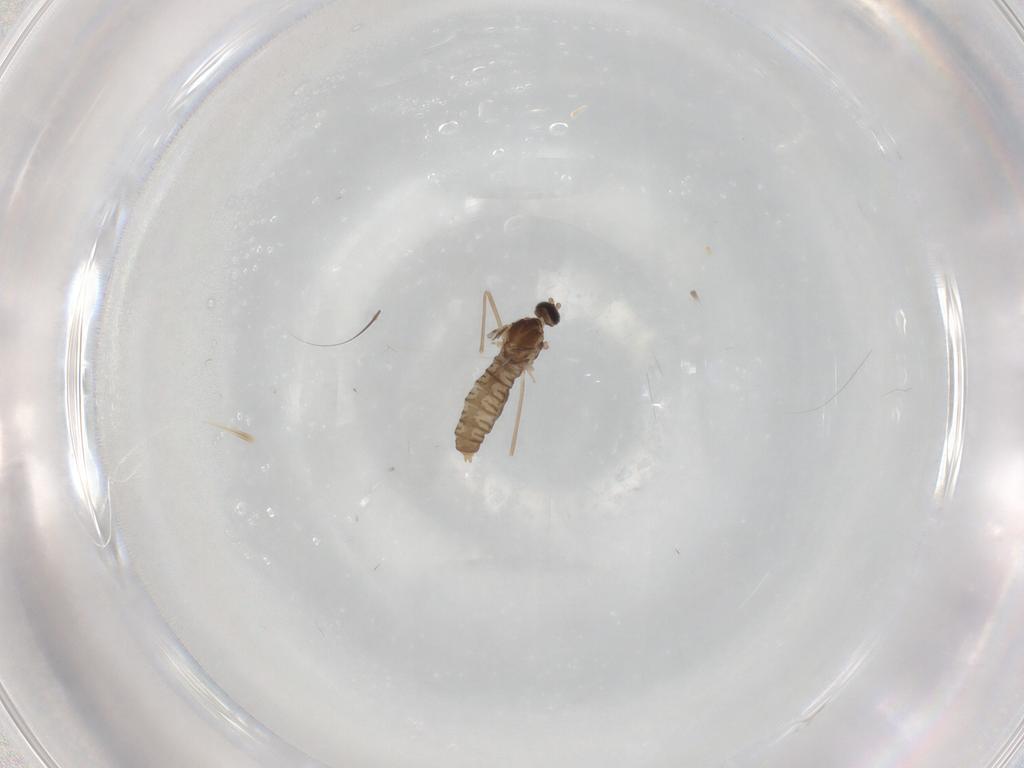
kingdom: Animalia
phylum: Arthropoda
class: Insecta
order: Diptera
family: Cecidomyiidae
